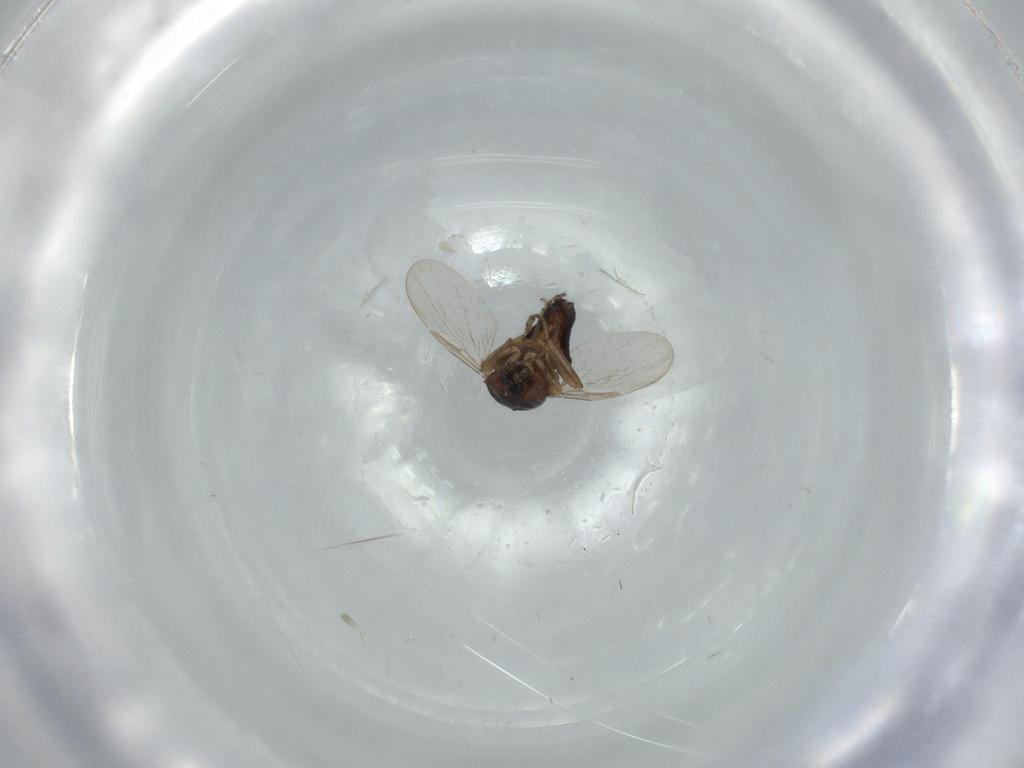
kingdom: Animalia
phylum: Arthropoda
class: Insecta
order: Diptera
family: Ceratopogonidae
